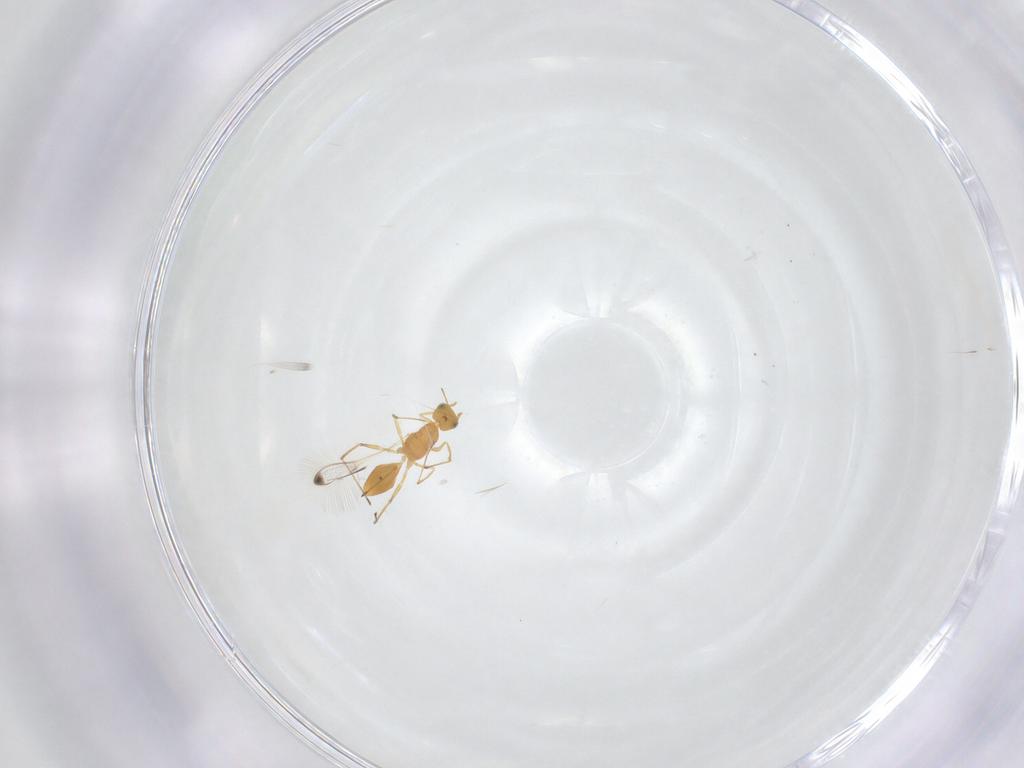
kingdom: Animalia
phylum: Arthropoda
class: Insecta
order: Hymenoptera
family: Mymaridae
